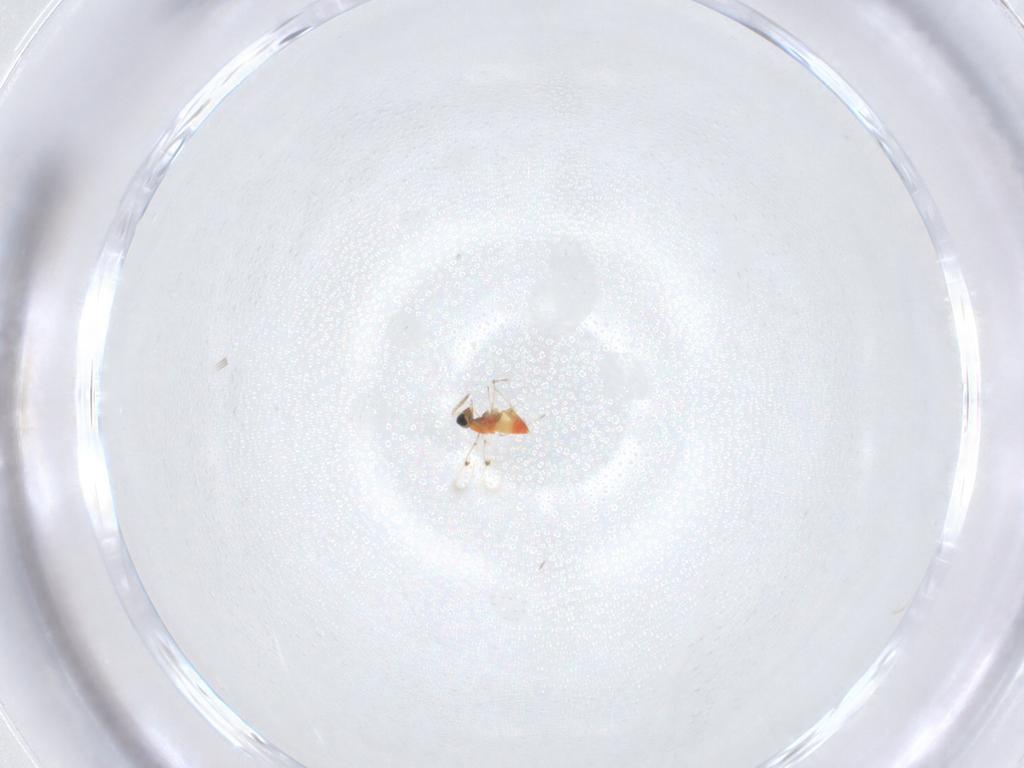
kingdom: Animalia
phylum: Arthropoda
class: Insecta
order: Hymenoptera
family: Trichogrammatidae
